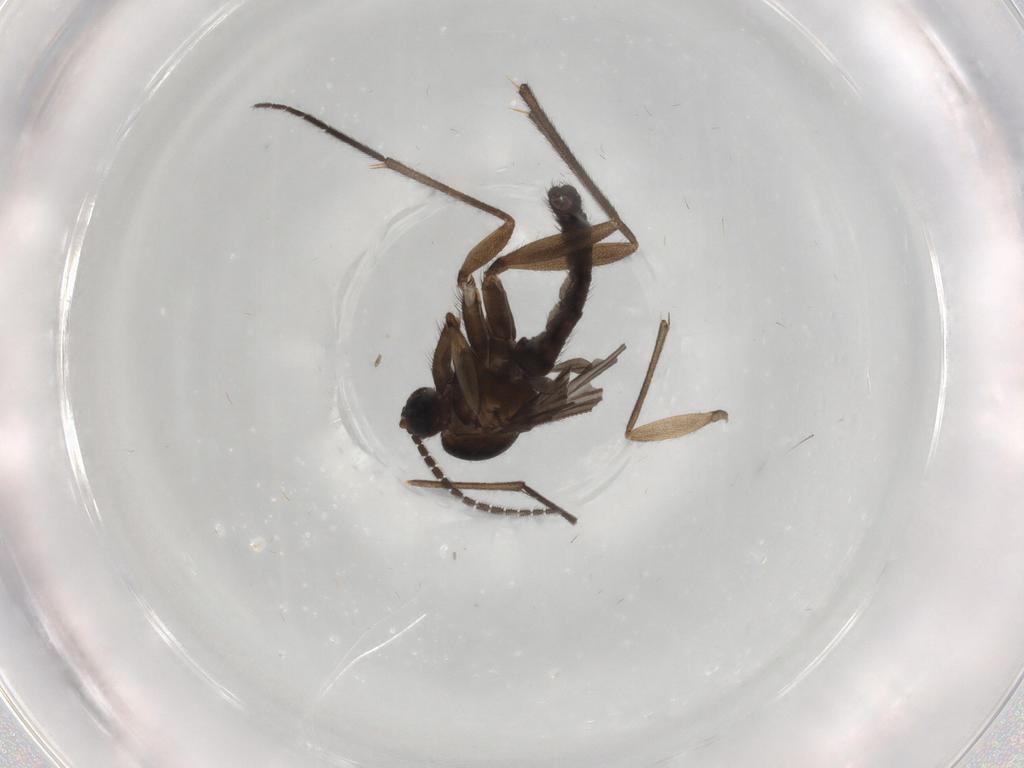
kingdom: Animalia
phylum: Arthropoda
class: Insecta
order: Diptera
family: Sciaridae
